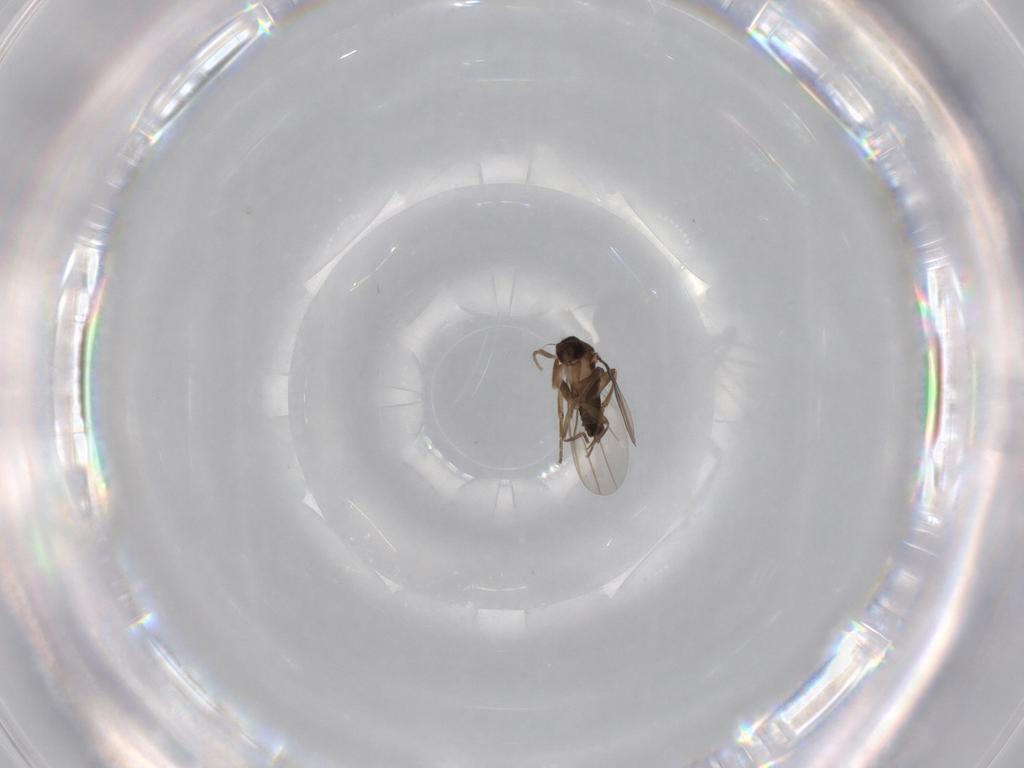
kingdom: Animalia
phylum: Arthropoda
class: Insecta
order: Diptera
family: Phoridae
